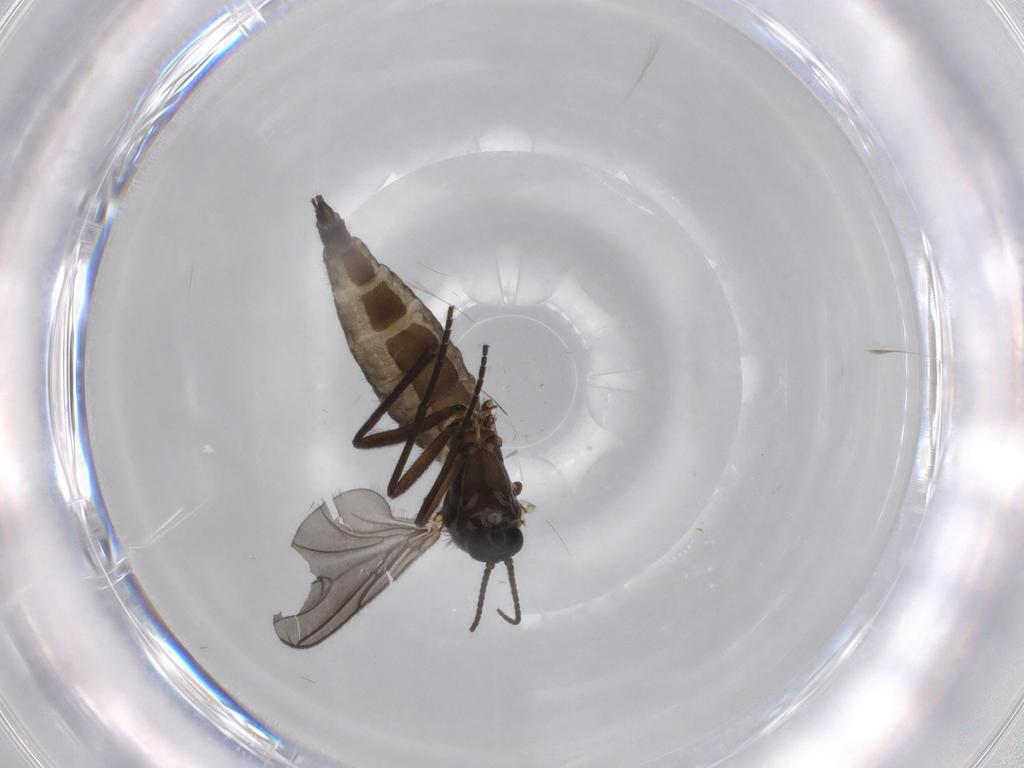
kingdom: Animalia
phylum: Arthropoda
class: Insecta
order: Diptera
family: Sciaridae
